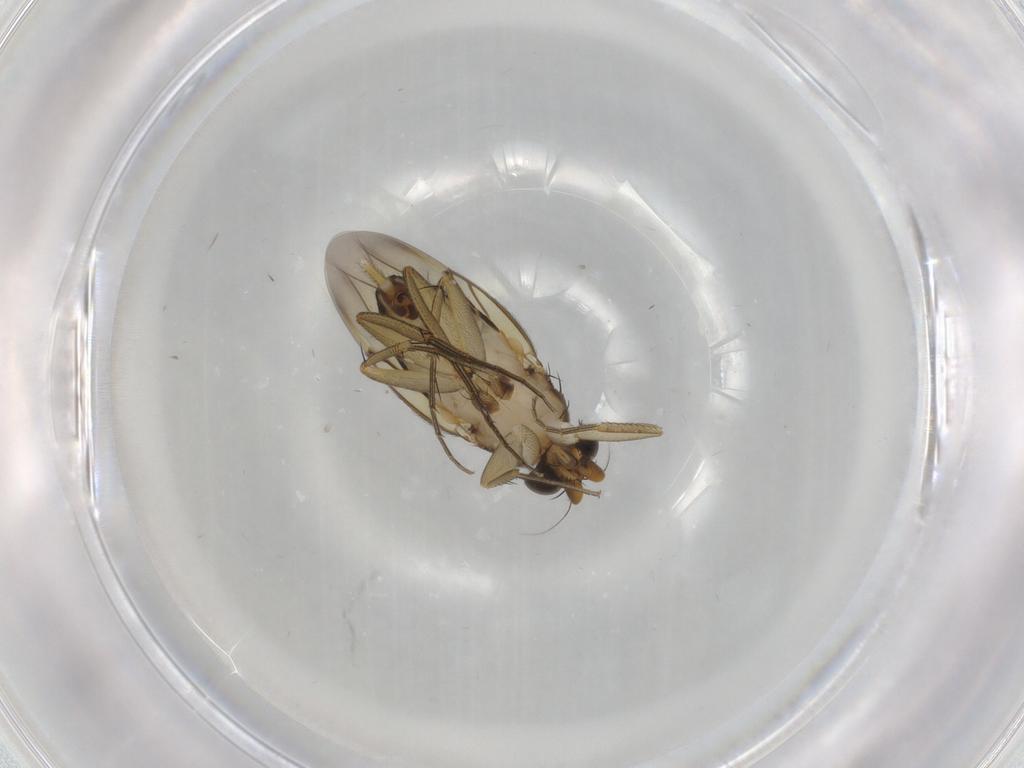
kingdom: Animalia
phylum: Arthropoda
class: Insecta
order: Diptera
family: Phoridae
